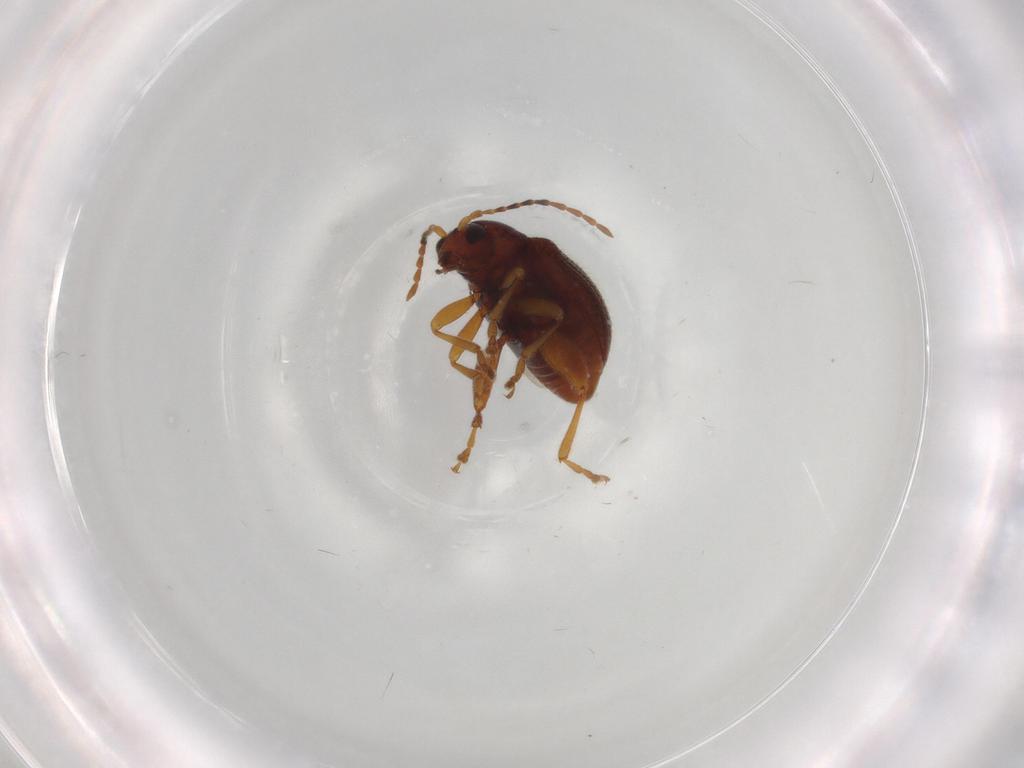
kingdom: Animalia
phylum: Arthropoda
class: Insecta
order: Coleoptera
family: Chrysomelidae
